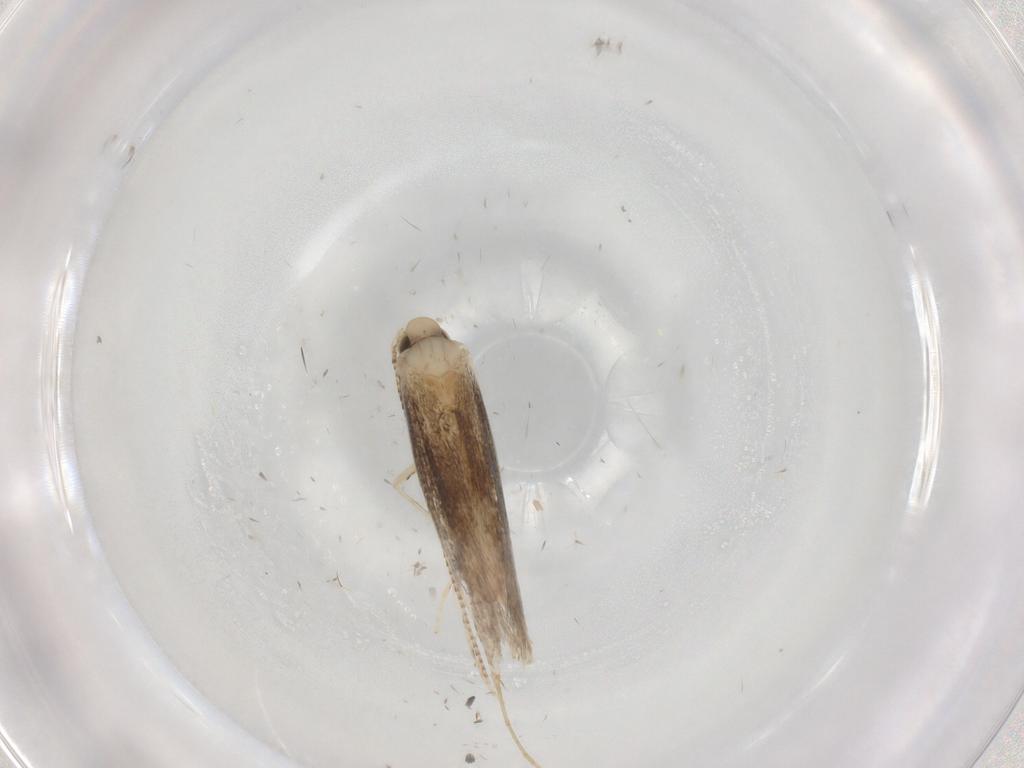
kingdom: Animalia
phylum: Arthropoda
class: Insecta
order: Lepidoptera
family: Gracillariidae
